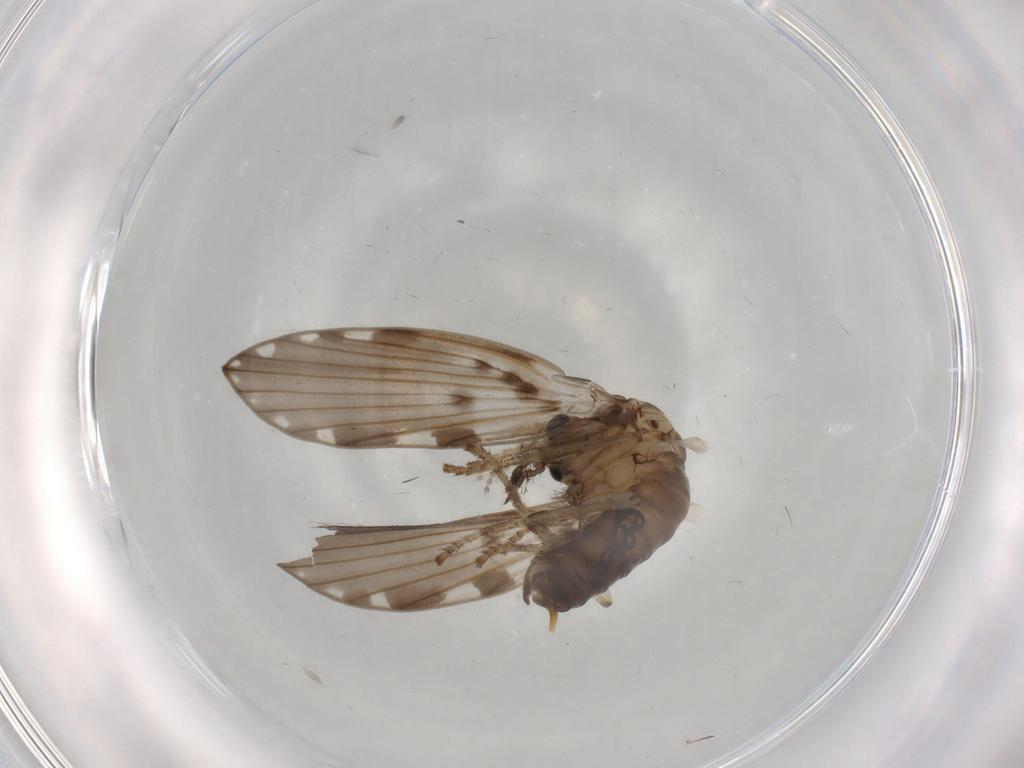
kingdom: Animalia
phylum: Arthropoda
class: Insecta
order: Diptera
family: Psychodidae
